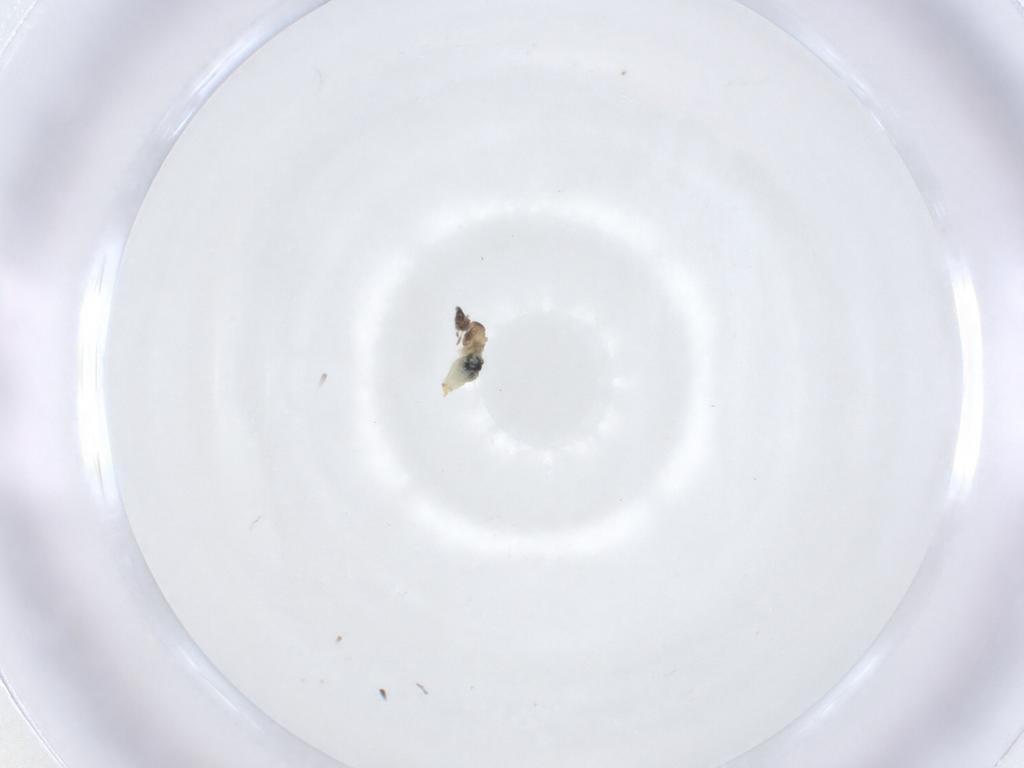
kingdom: Animalia
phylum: Arthropoda
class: Insecta
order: Diptera
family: Cecidomyiidae
